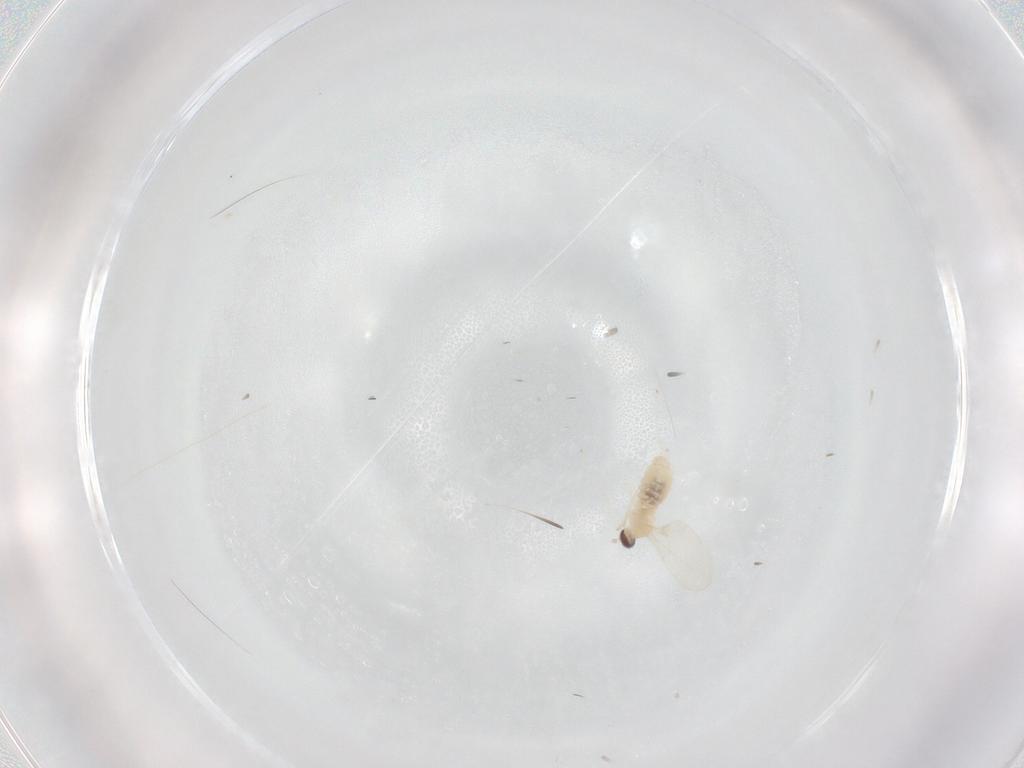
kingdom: Animalia
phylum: Arthropoda
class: Insecta
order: Diptera
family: Cecidomyiidae
